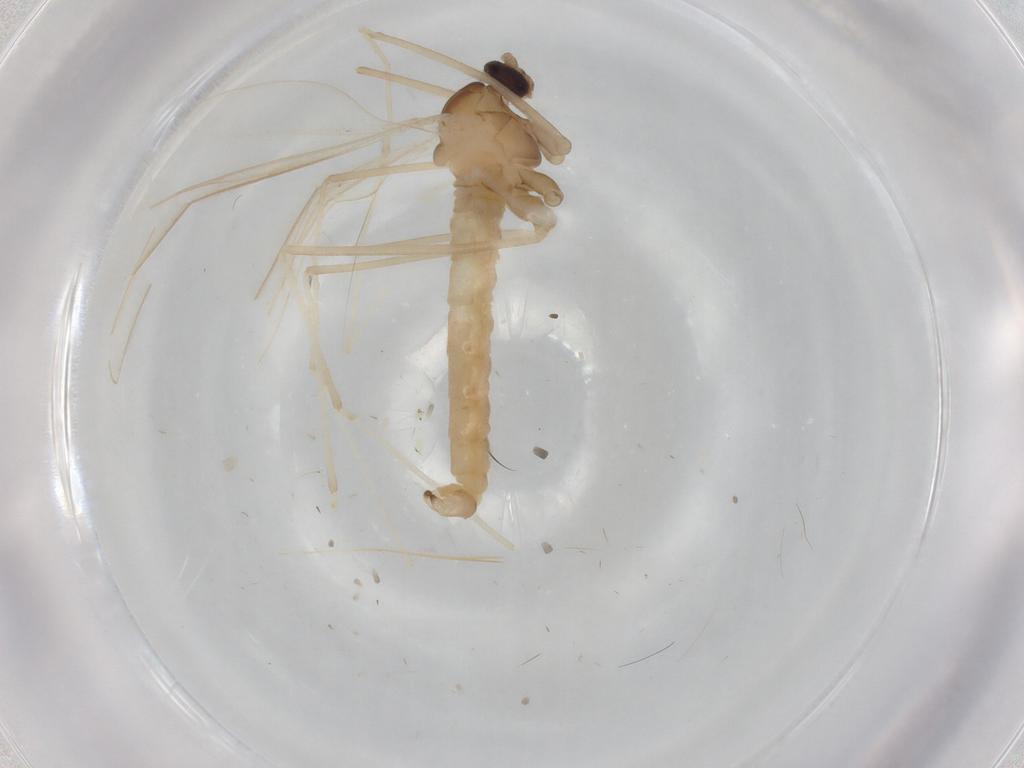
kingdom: Animalia
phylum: Arthropoda
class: Insecta
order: Diptera
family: Cecidomyiidae
